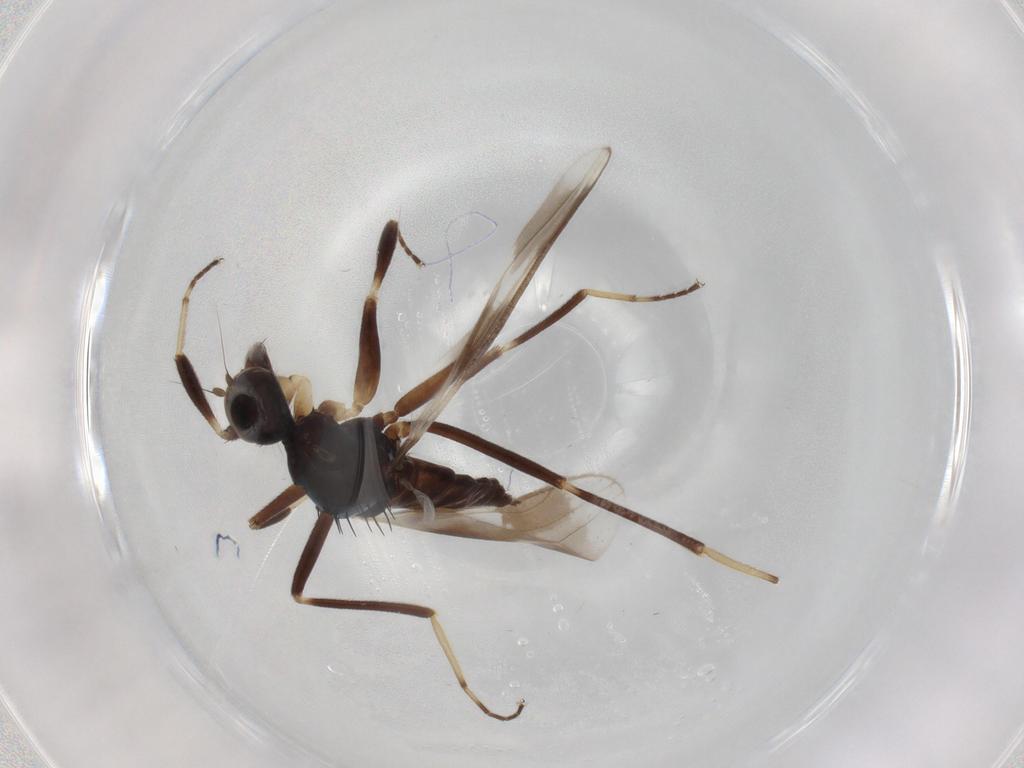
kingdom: Animalia
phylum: Arthropoda
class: Insecta
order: Diptera
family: Hybotidae
